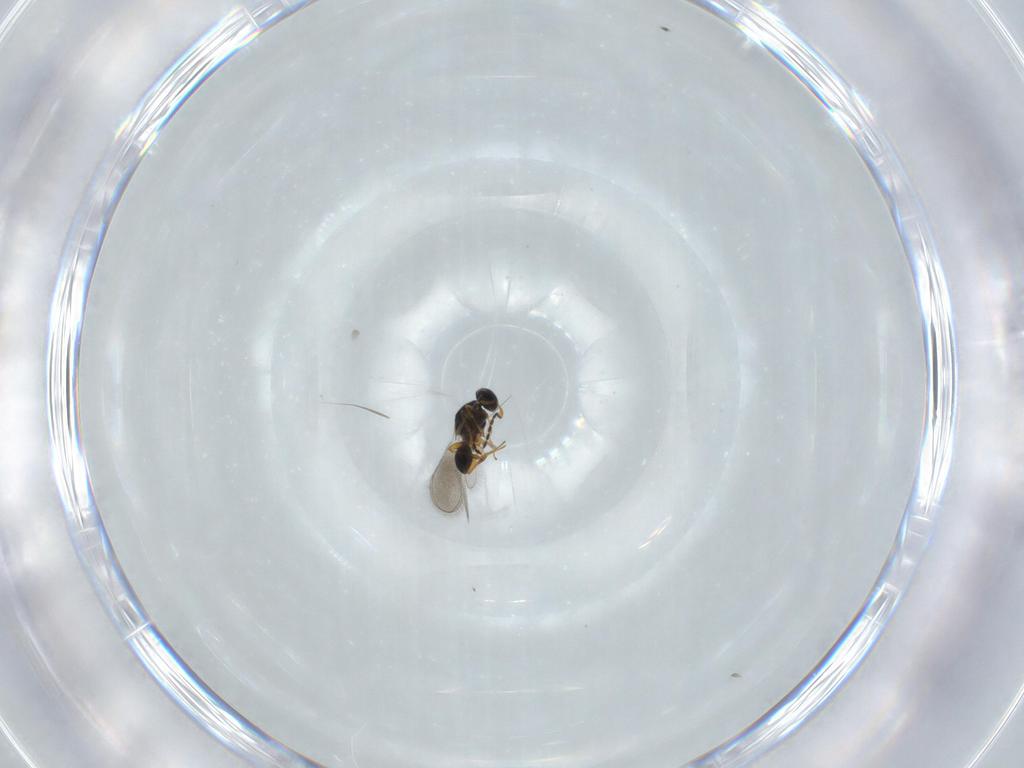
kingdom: Animalia
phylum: Arthropoda
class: Insecta
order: Hymenoptera
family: Platygastridae
